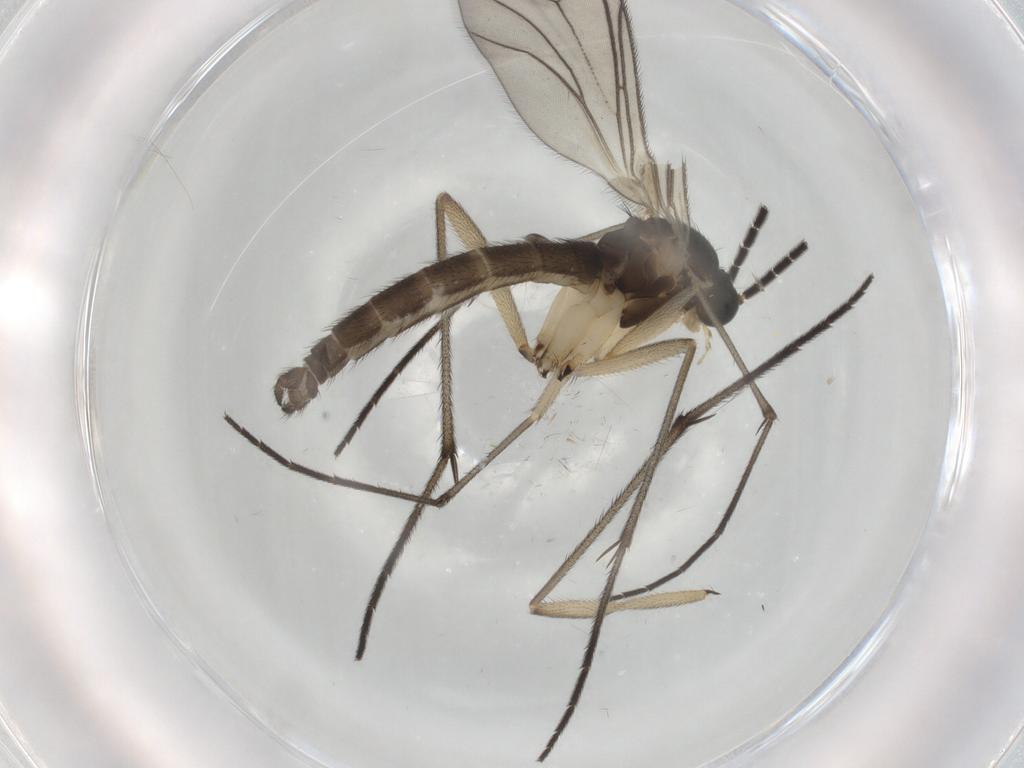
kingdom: Animalia
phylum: Arthropoda
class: Insecta
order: Diptera
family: Sciaridae
